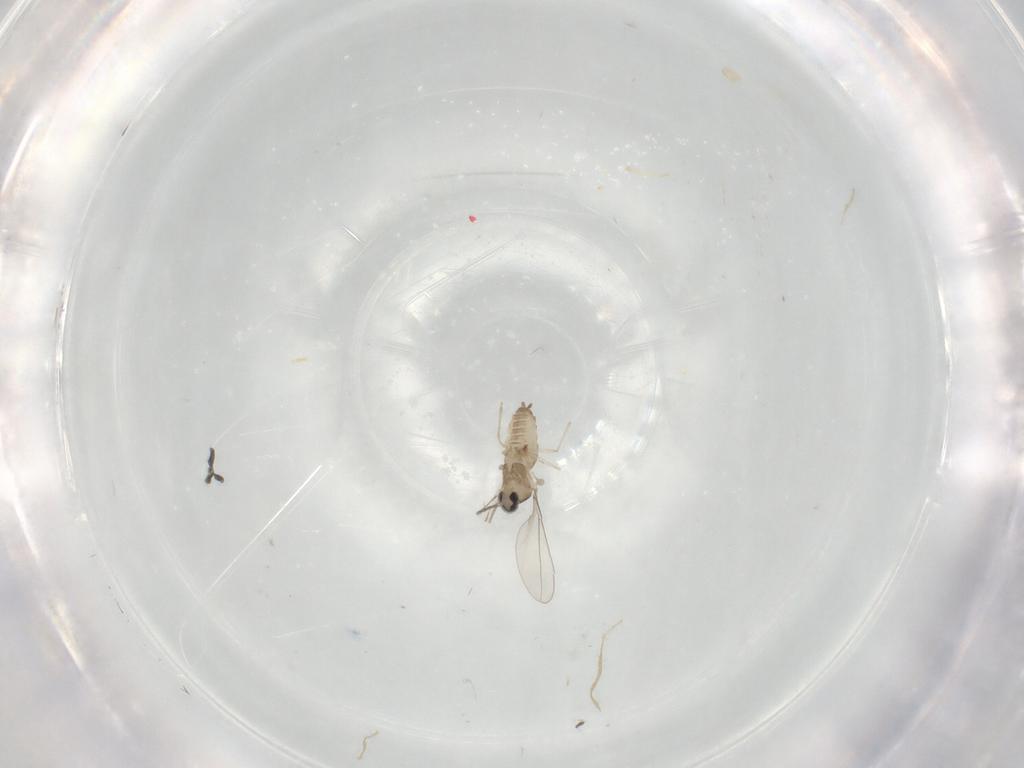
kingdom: Animalia
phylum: Arthropoda
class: Insecta
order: Diptera
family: Cecidomyiidae
